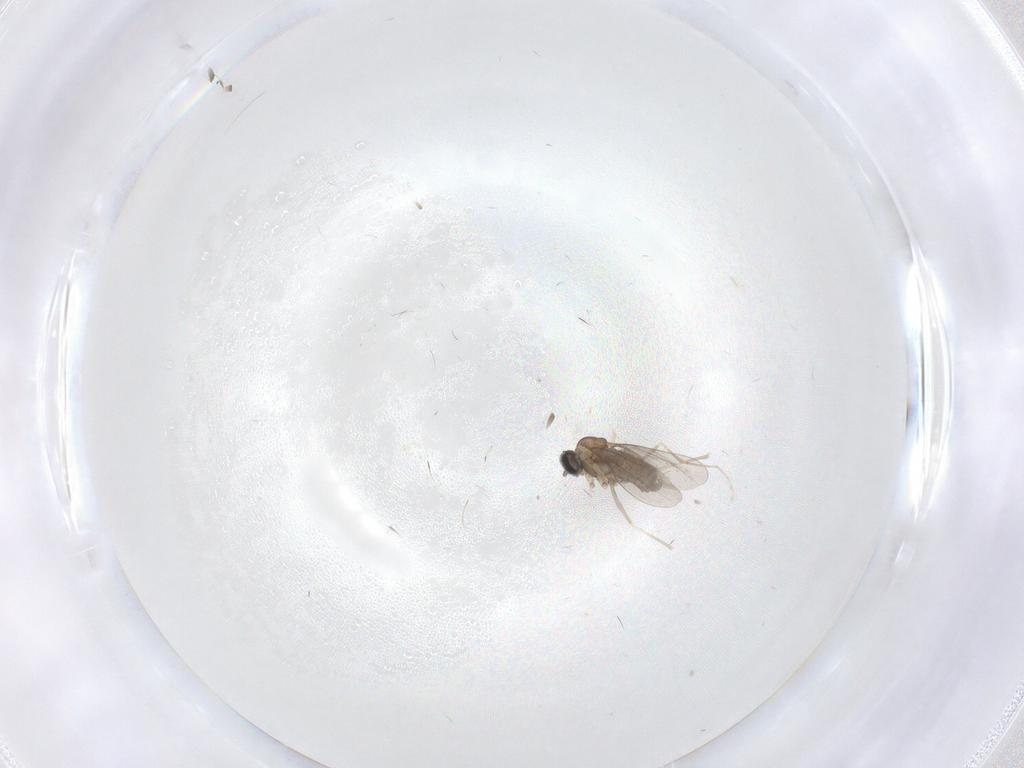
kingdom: Animalia
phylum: Arthropoda
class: Insecta
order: Diptera
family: Cecidomyiidae
